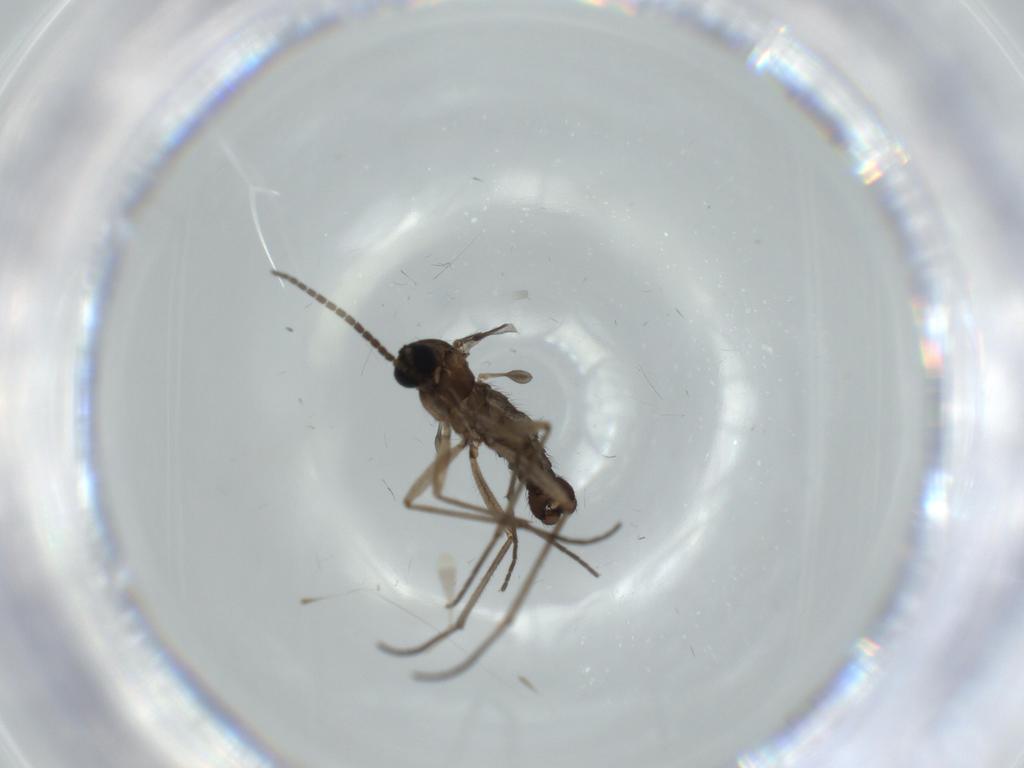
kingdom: Animalia
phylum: Arthropoda
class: Insecta
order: Diptera
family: Sciaridae
